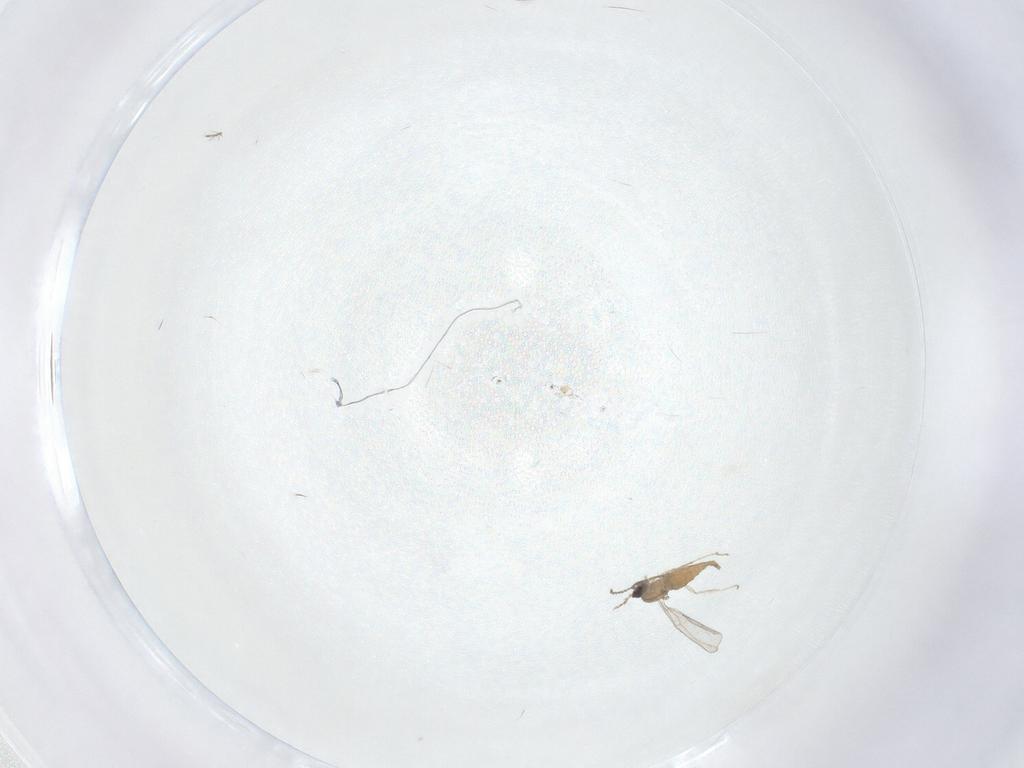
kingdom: Animalia
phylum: Arthropoda
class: Insecta
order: Diptera
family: Cecidomyiidae
